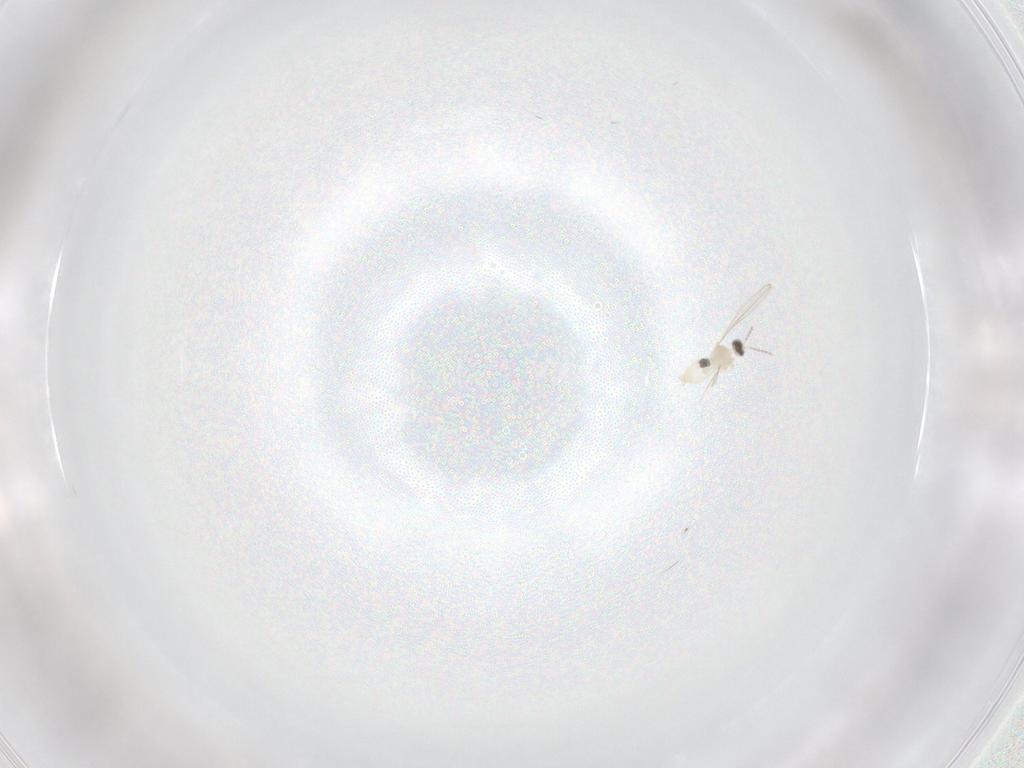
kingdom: Animalia
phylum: Arthropoda
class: Insecta
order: Diptera
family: Cecidomyiidae
